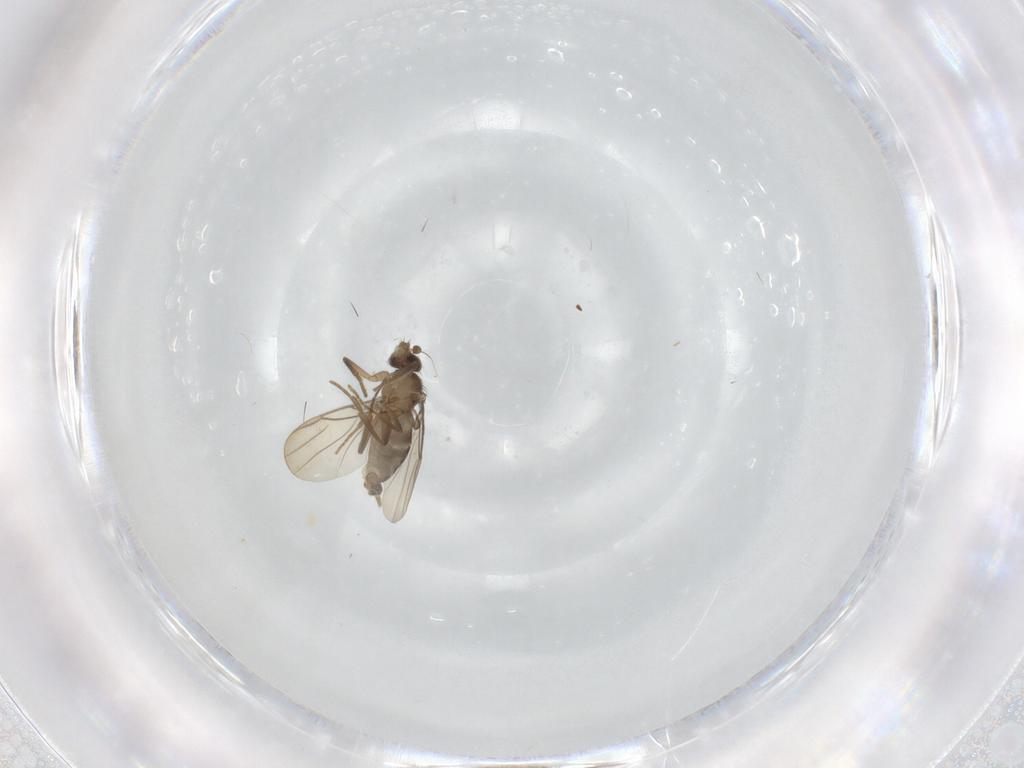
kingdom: Animalia
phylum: Arthropoda
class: Insecta
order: Diptera
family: Phoridae
